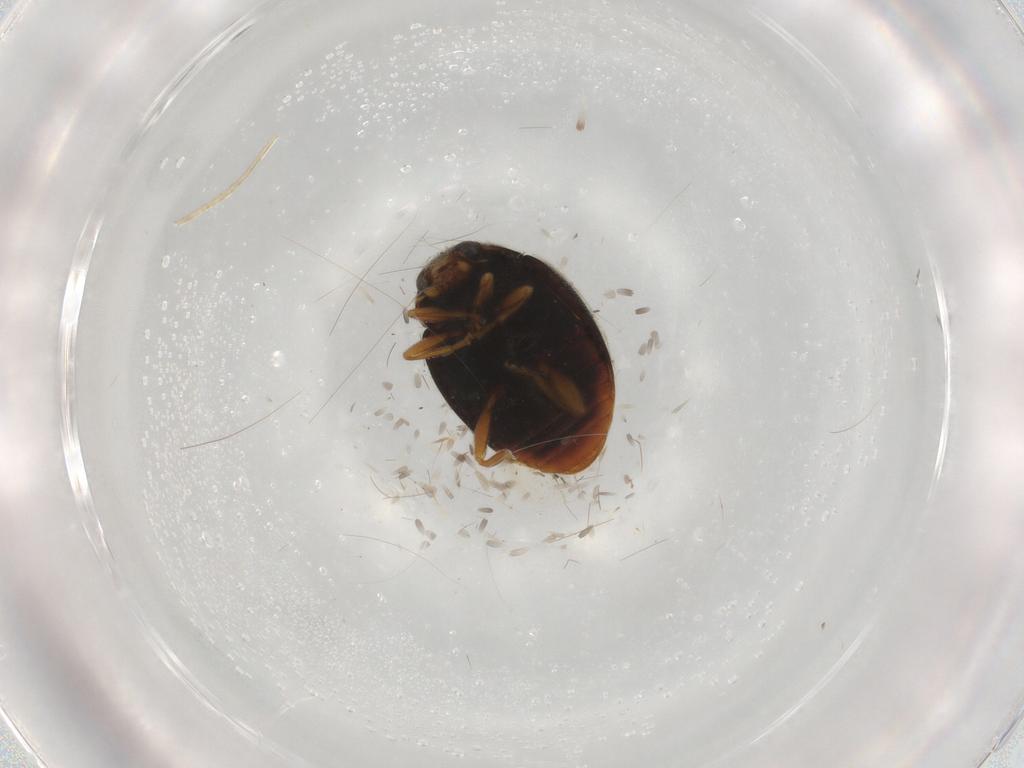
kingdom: Animalia
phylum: Arthropoda
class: Insecta
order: Coleoptera
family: Coccinellidae
